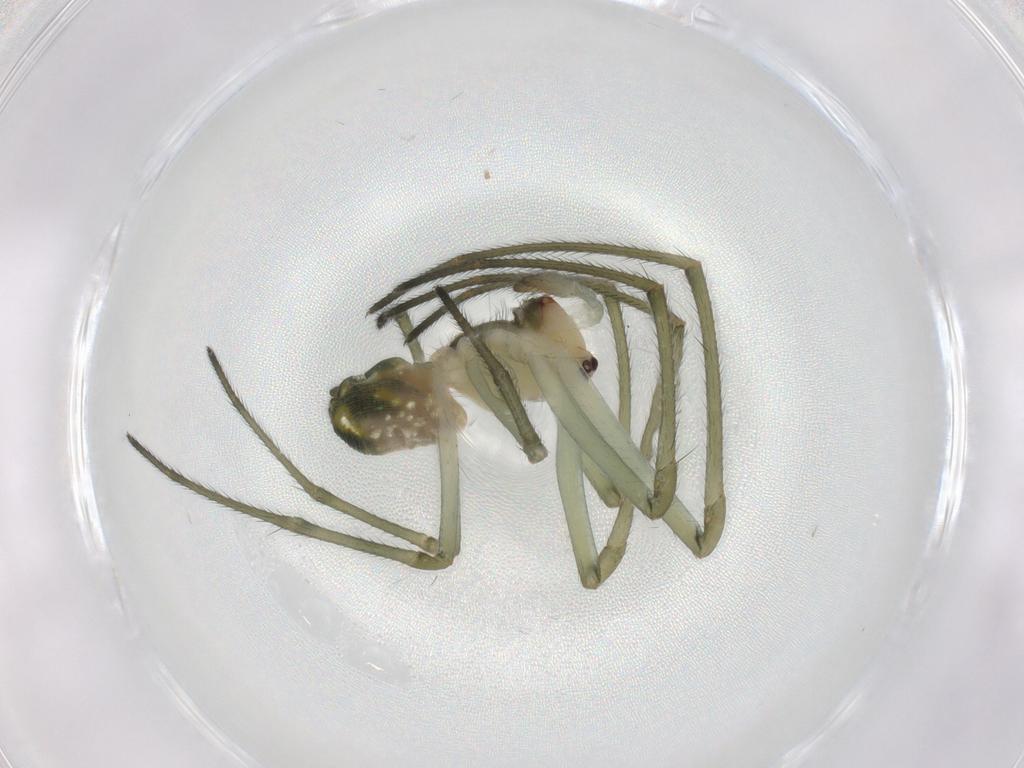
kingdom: Animalia
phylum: Arthropoda
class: Arachnida
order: Araneae
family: Tetragnathidae
